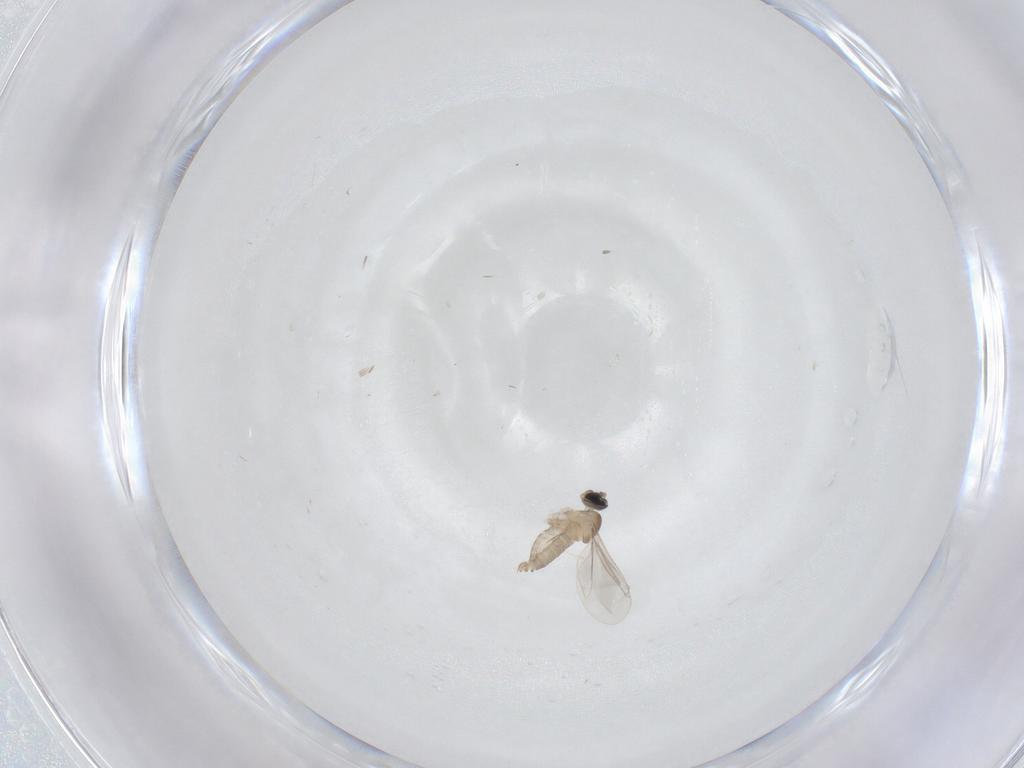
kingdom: Animalia
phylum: Arthropoda
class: Insecta
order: Diptera
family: Cecidomyiidae
